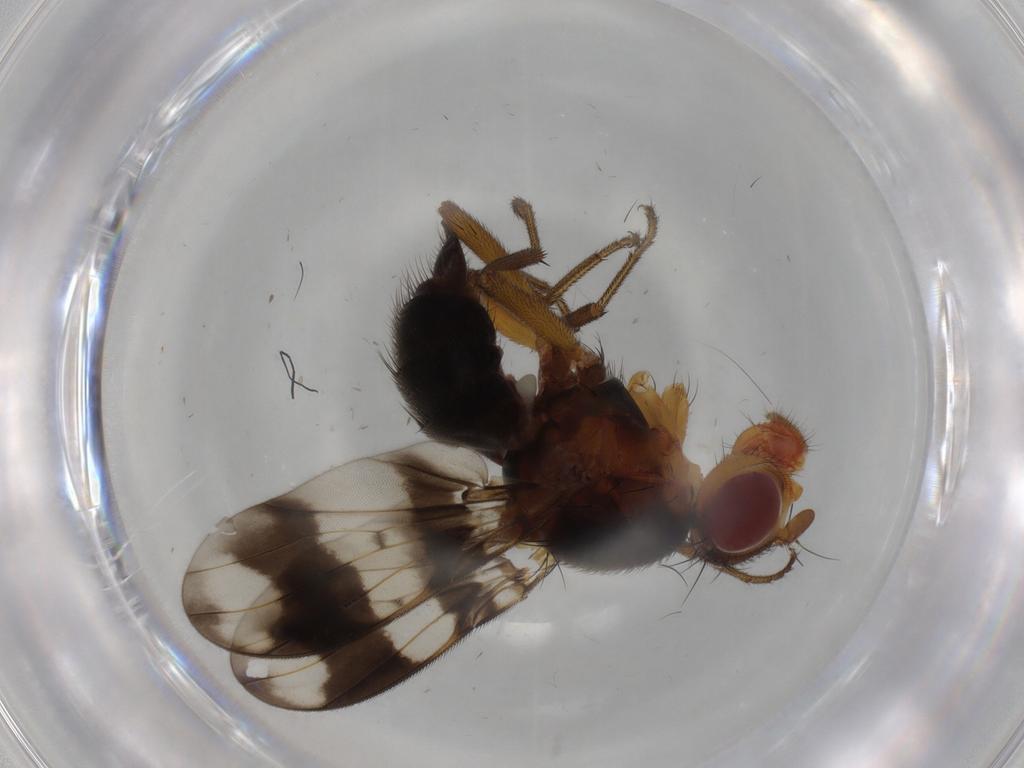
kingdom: Animalia
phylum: Arthropoda
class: Insecta
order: Diptera
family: Richardiidae
